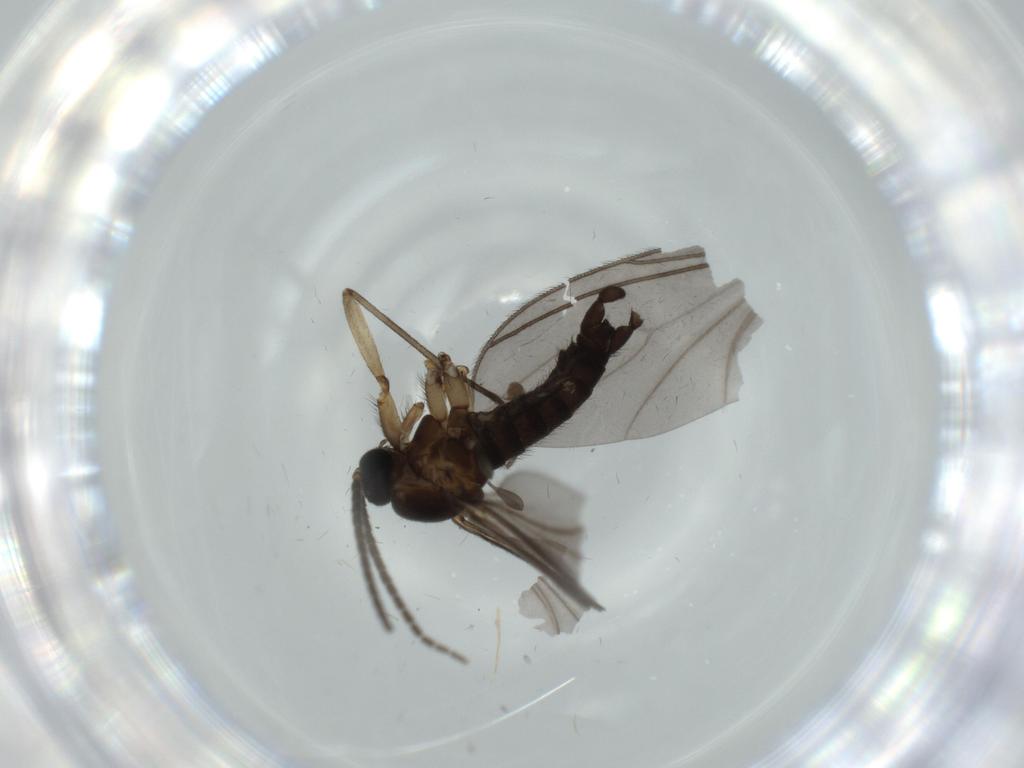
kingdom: Animalia
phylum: Arthropoda
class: Insecta
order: Diptera
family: Sciaridae
